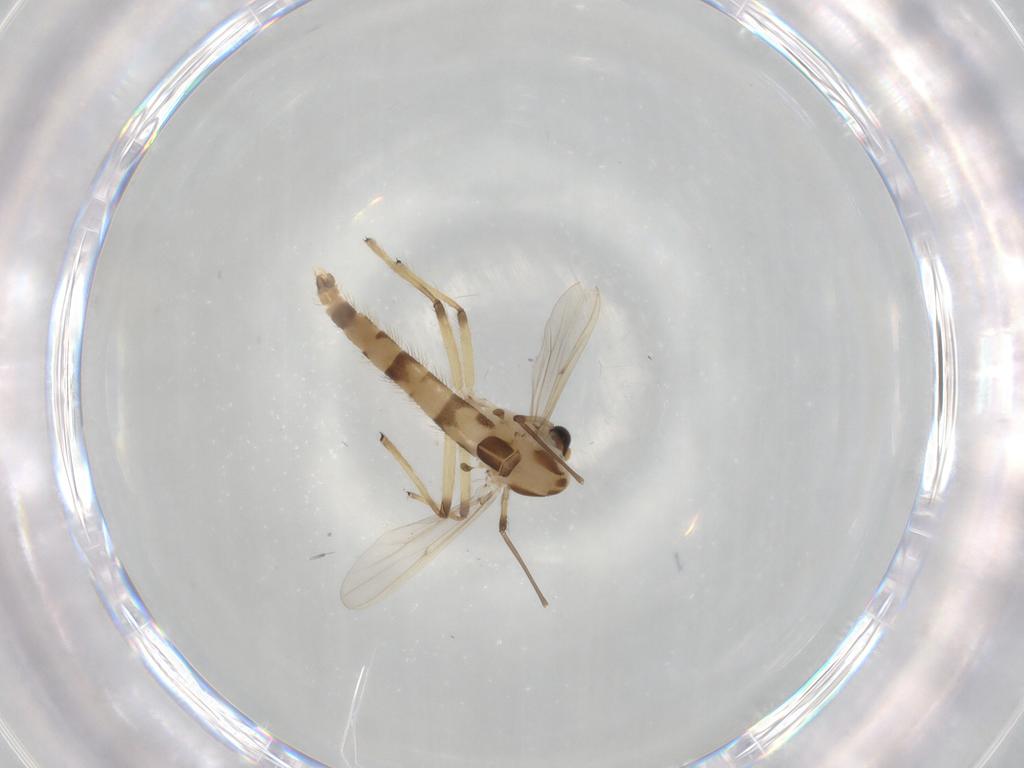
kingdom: Animalia
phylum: Arthropoda
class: Insecta
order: Diptera
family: Chironomidae
